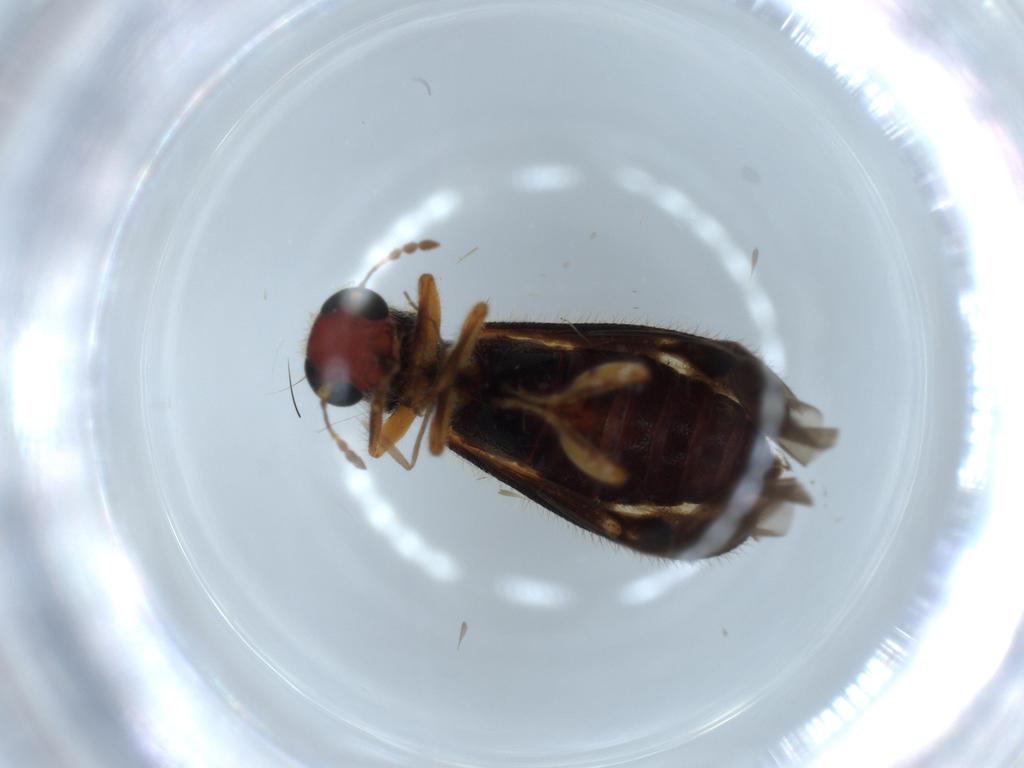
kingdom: Animalia
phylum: Arthropoda
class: Insecta
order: Coleoptera
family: Cleridae
